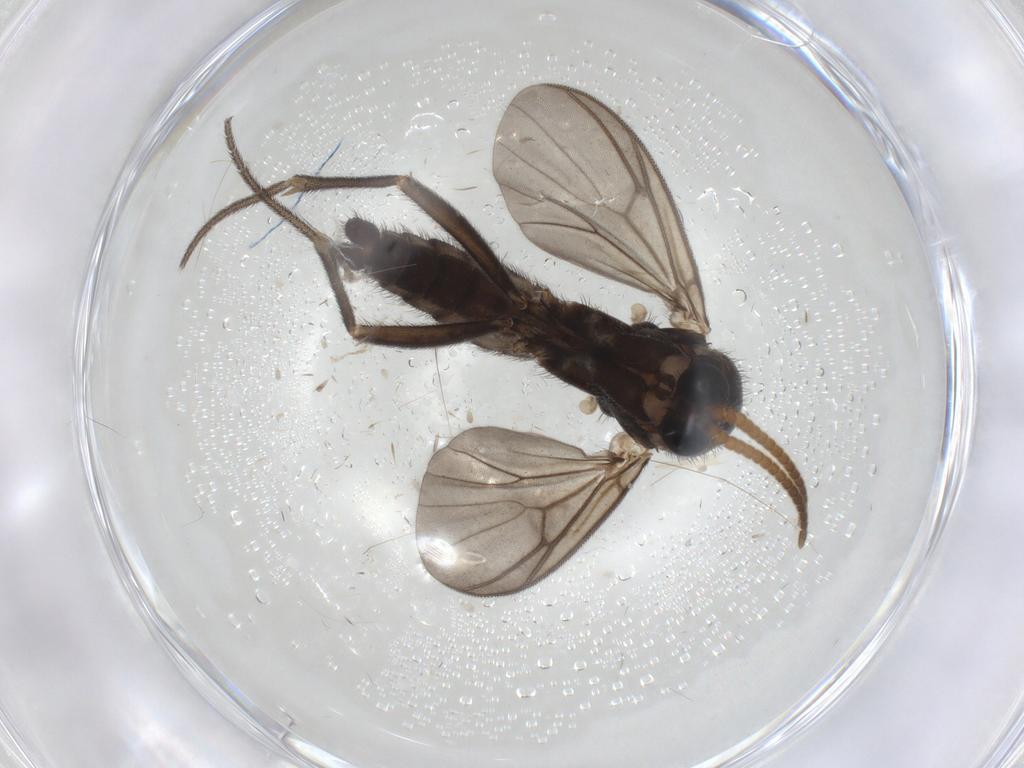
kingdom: Animalia
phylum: Arthropoda
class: Insecta
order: Diptera
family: Mycetophilidae
